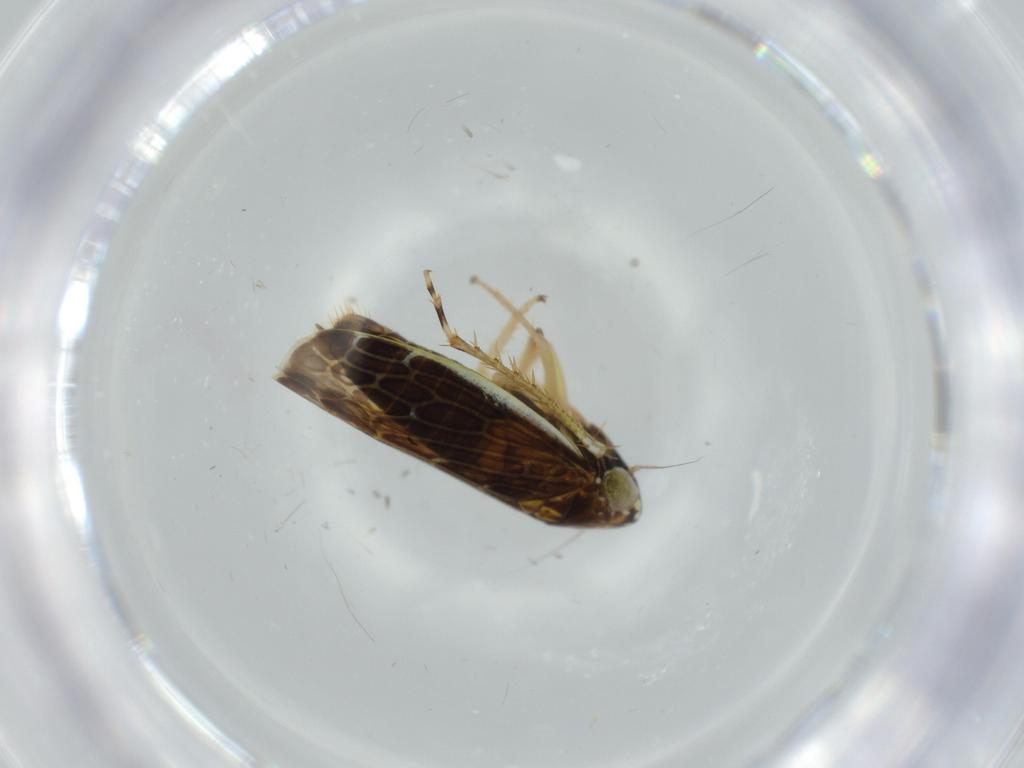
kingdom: Animalia
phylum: Arthropoda
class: Insecta
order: Hemiptera
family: Cicadellidae
